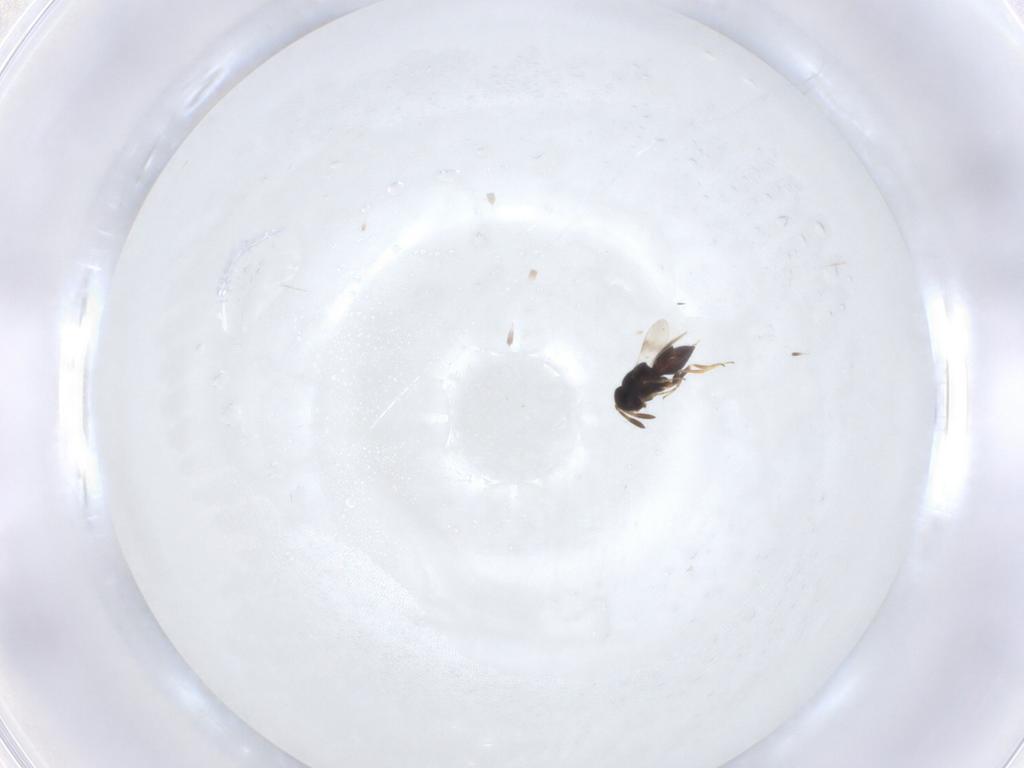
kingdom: Animalia
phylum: Arthropoda
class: Insecta
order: Hymenoptera
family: Scelionidae
